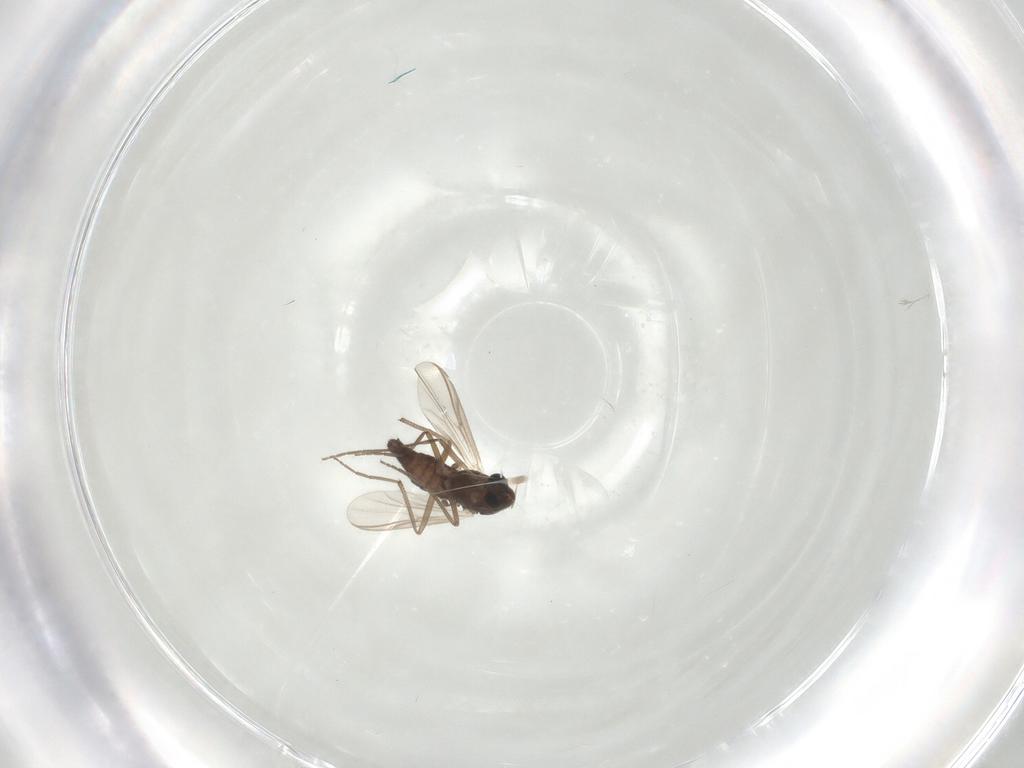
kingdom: Animalia
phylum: Arthropoda
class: Insecta
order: Diptera
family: Chironomidae
